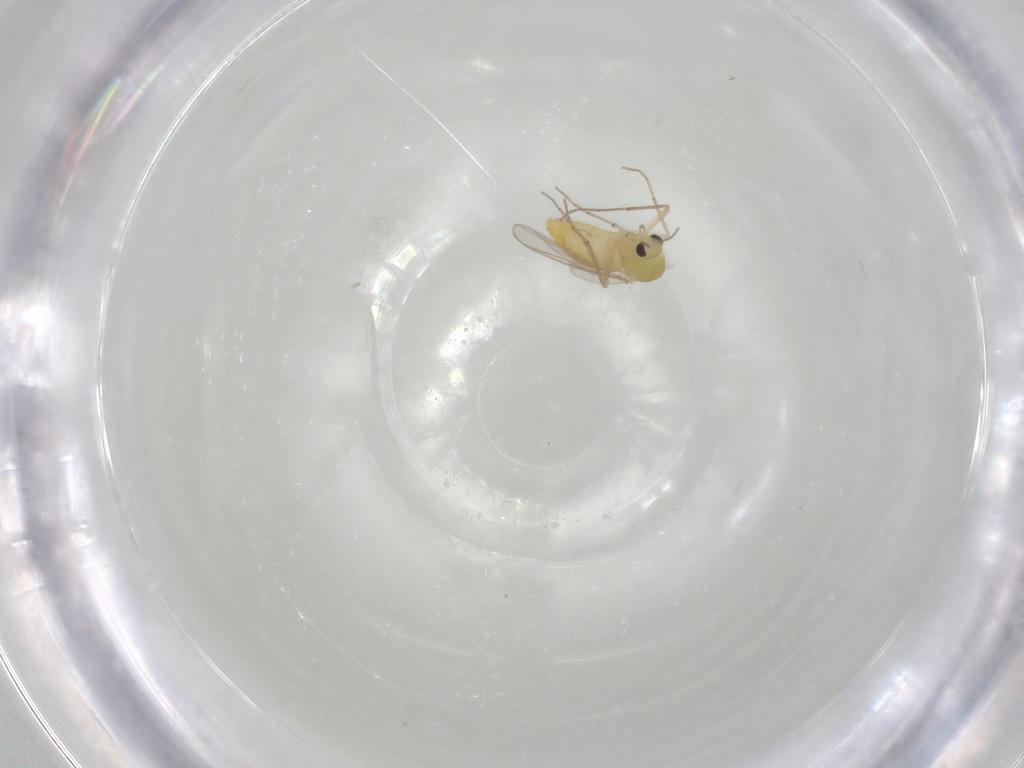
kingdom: Animalia
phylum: Arthropoda
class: Insecta
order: Diptera
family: Chironomidae
